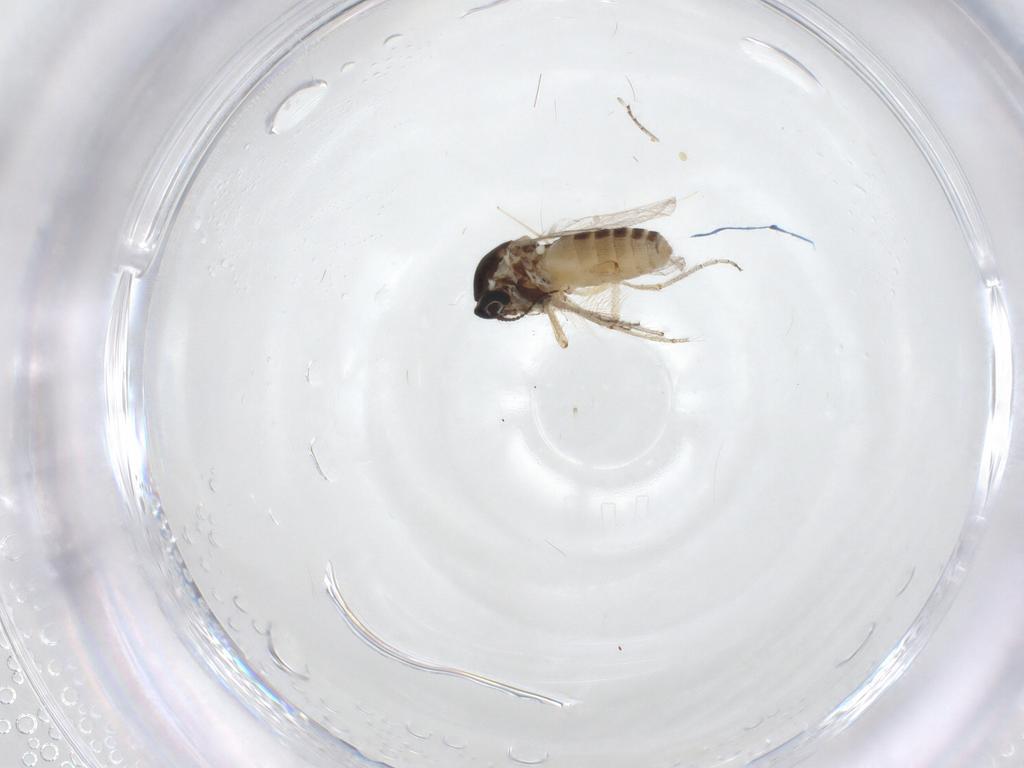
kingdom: Animalia
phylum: Arthropoda
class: Insecta
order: Diptera
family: Ceratopogonidae
